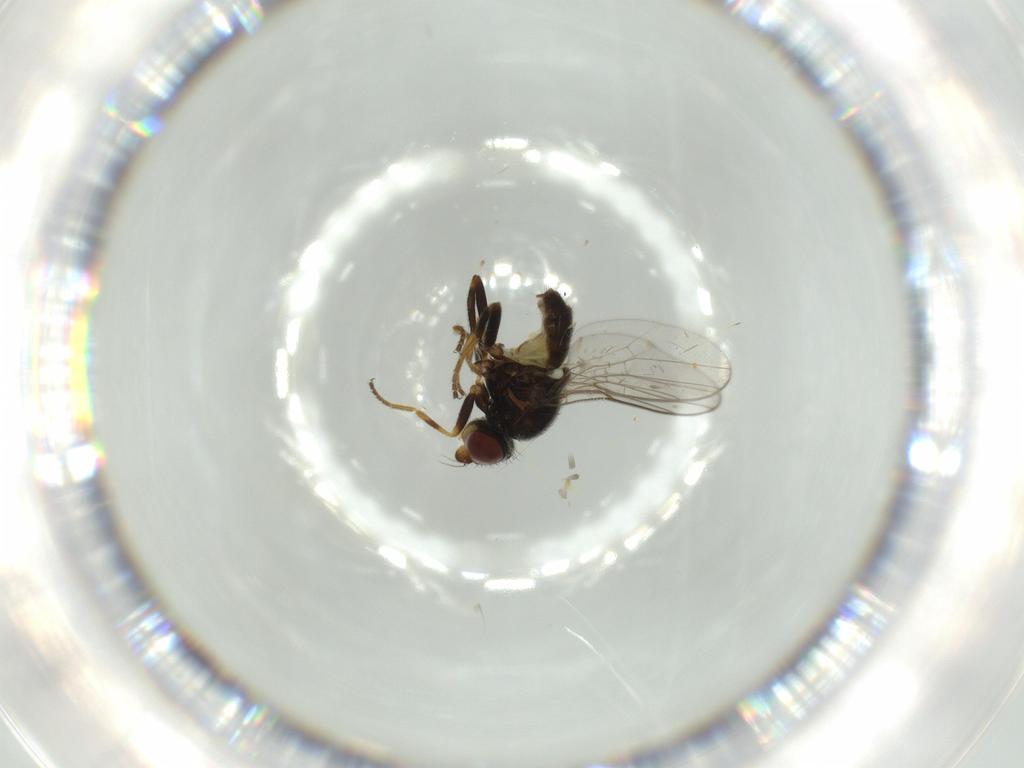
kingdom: Animalia
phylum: Arthropoda
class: Insecta
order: Diptera
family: Chloropidae
